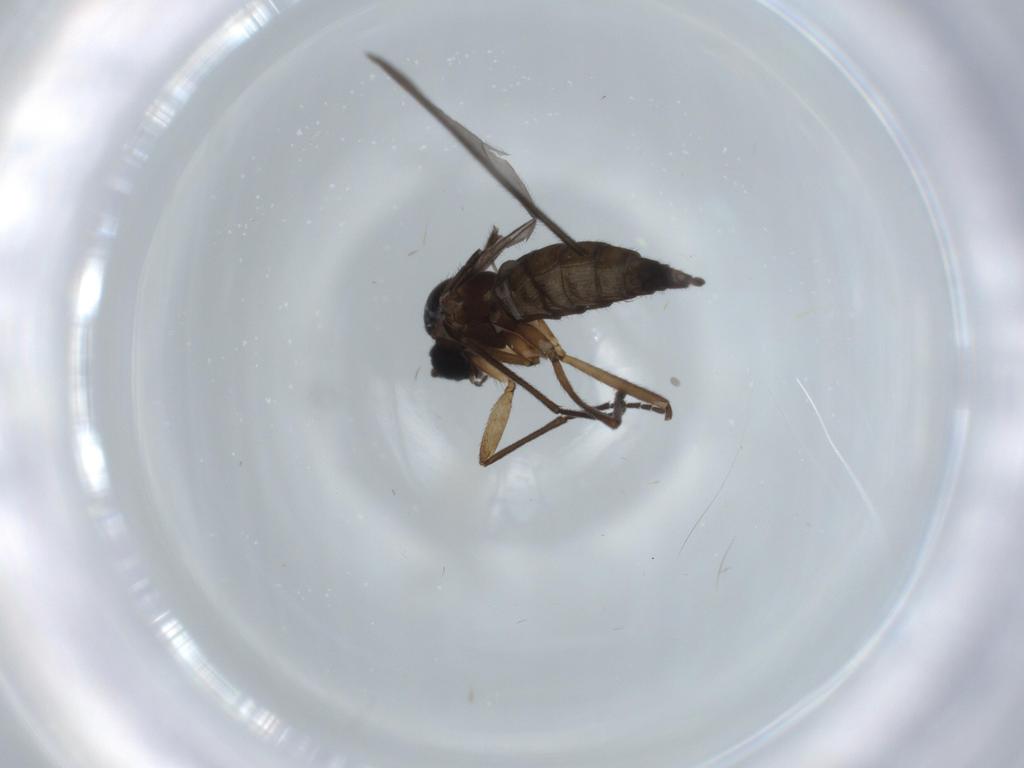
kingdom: Animalia
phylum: Arthropoda
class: Insecta
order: Diptera
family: Sciaridae
